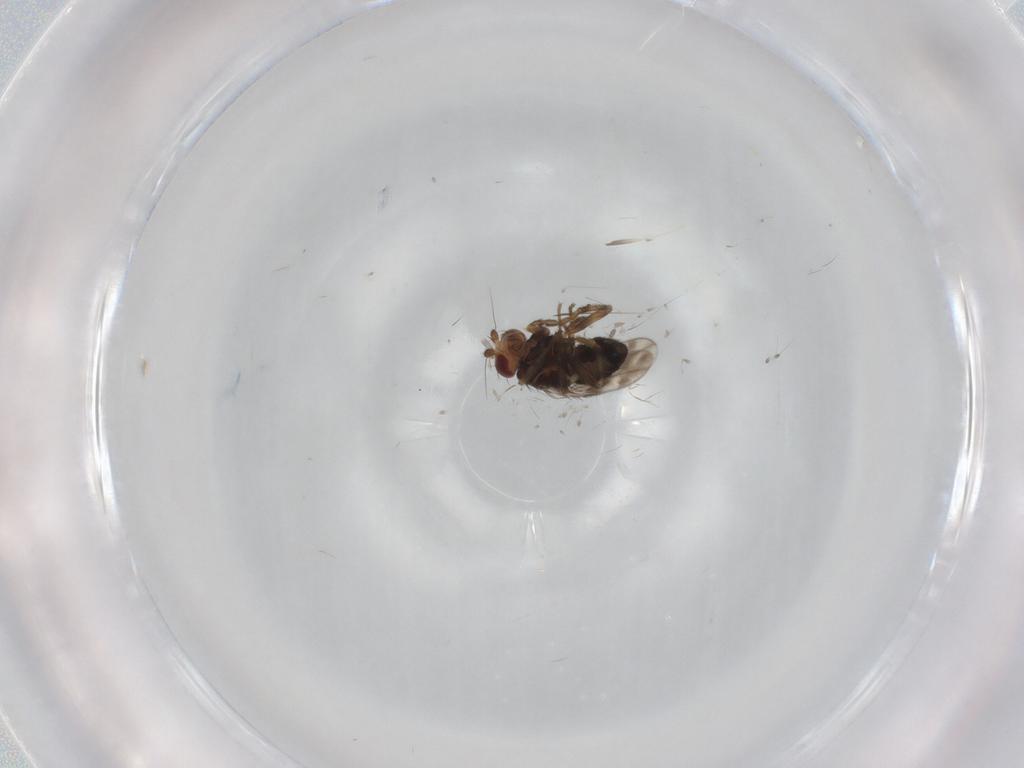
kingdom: Animalia
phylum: Arthropoda
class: Insecta
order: Diptera
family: Sphaeroceridae
